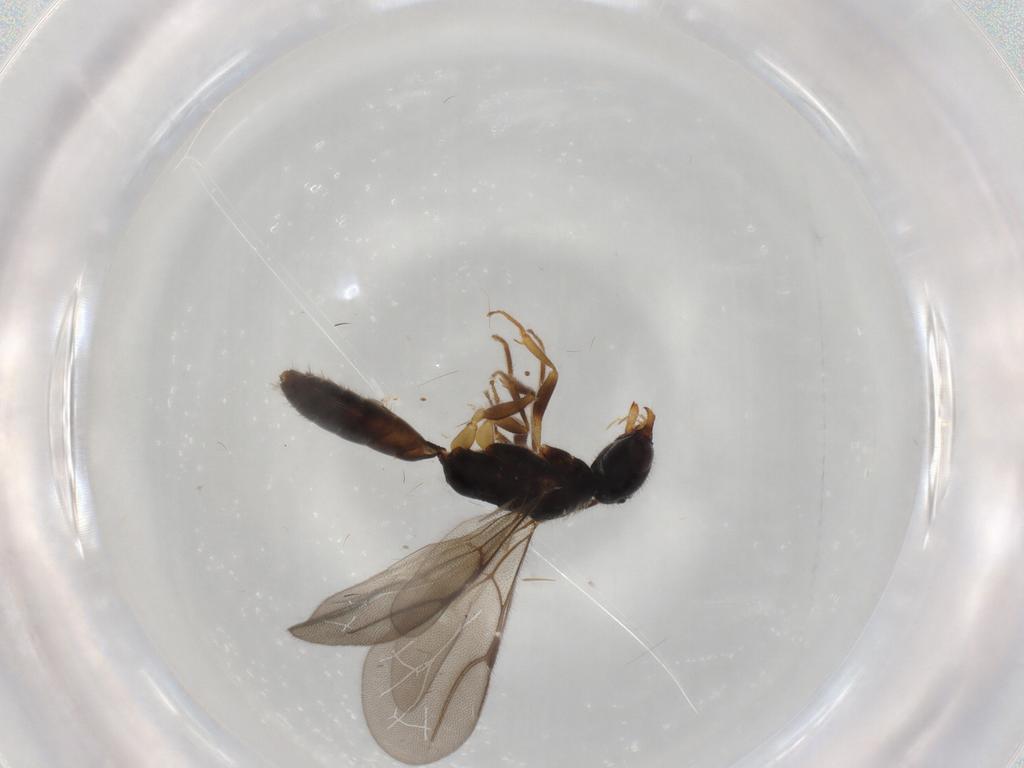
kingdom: Animalia
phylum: Arthropoda
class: Insecta
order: Hymenoptera
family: Bethylidae
